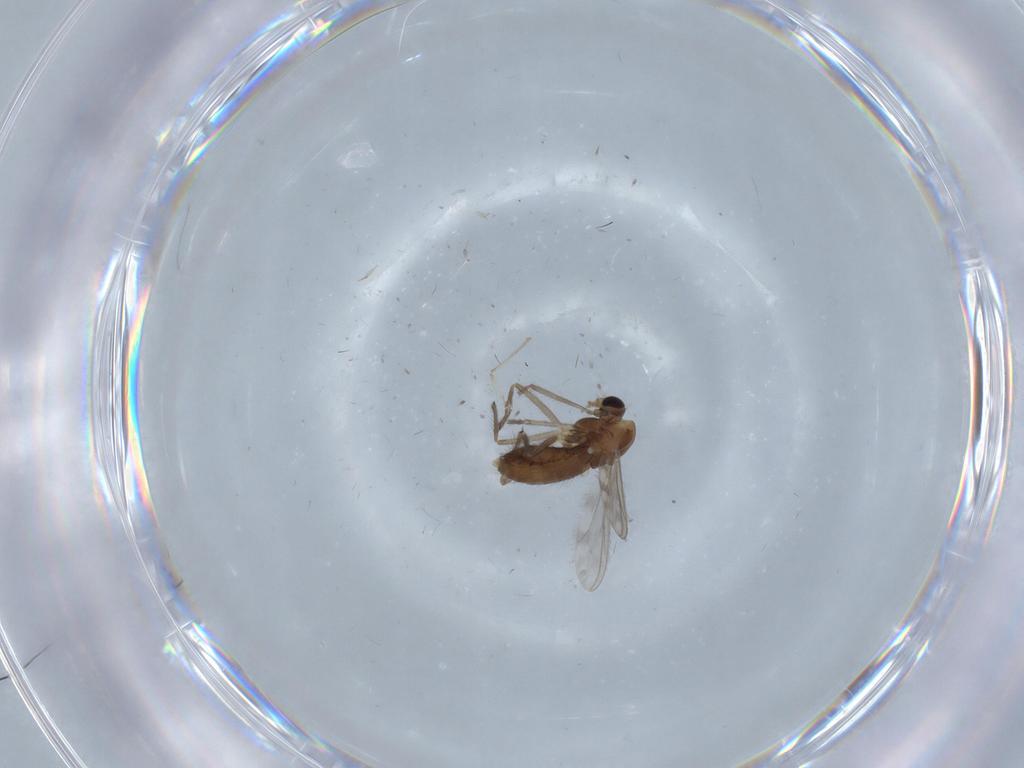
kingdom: Animalia
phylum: Arthropoda
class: Insecta
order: Diptera
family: Chironomidae
